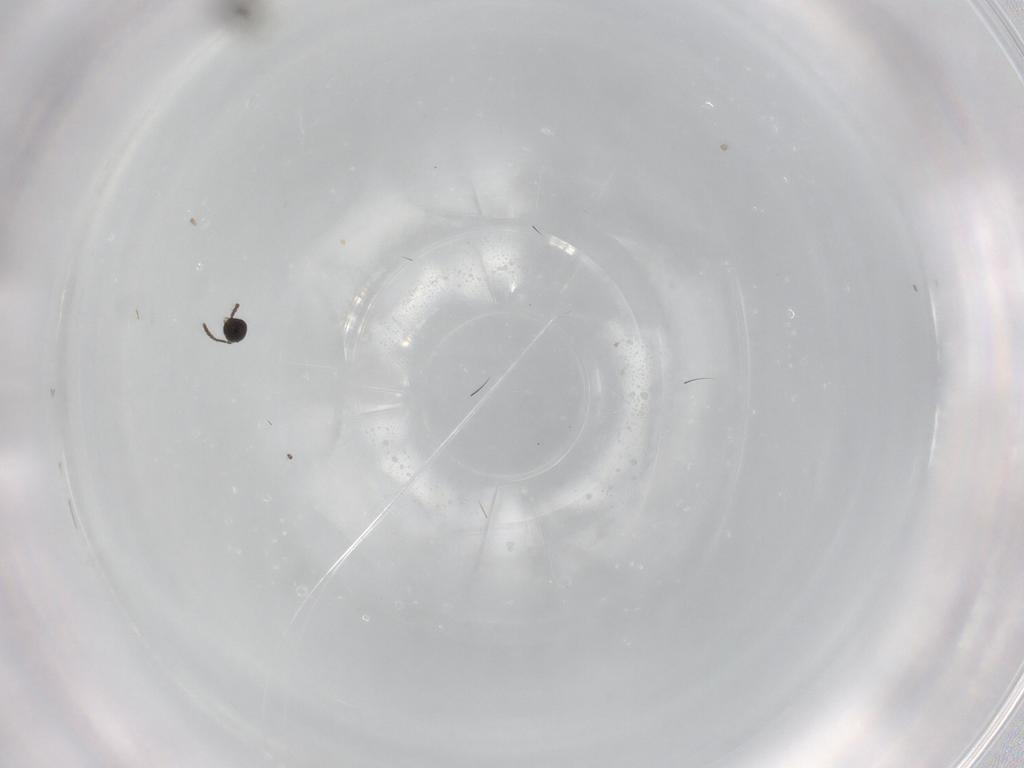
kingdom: Animalia
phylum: Arthropoda
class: Insecta
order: Hymenoptera
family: Scelionidae
